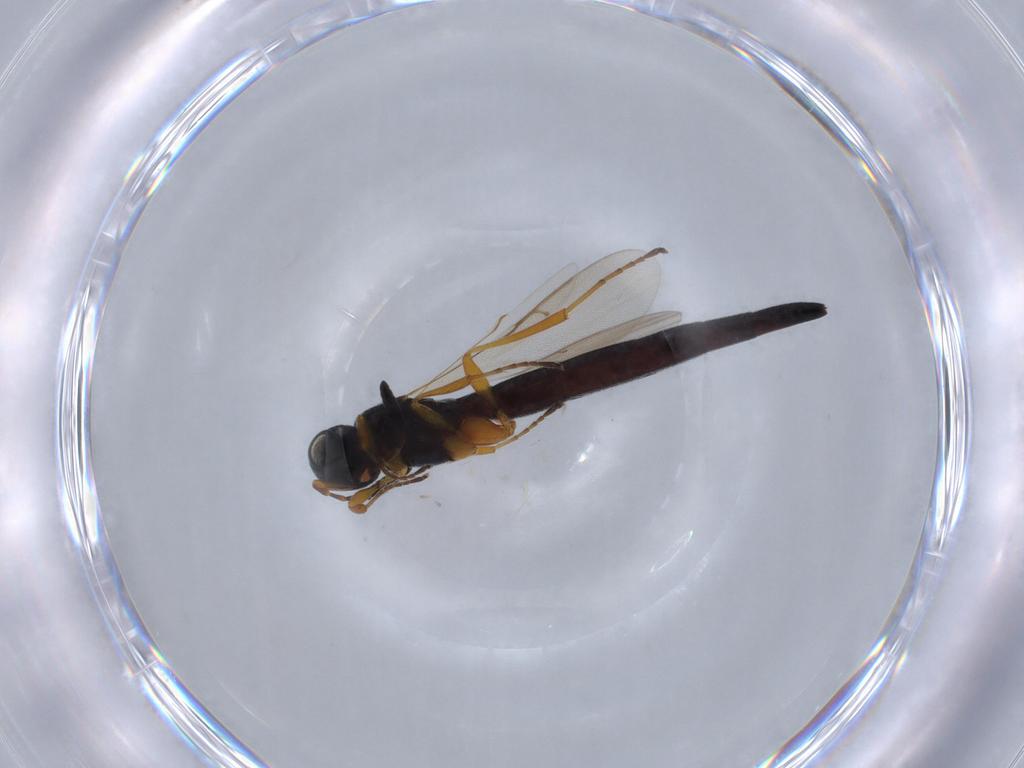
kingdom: Animalia
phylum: Arthropoda
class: Insecta
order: Hymenoptera
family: Scelionidae
